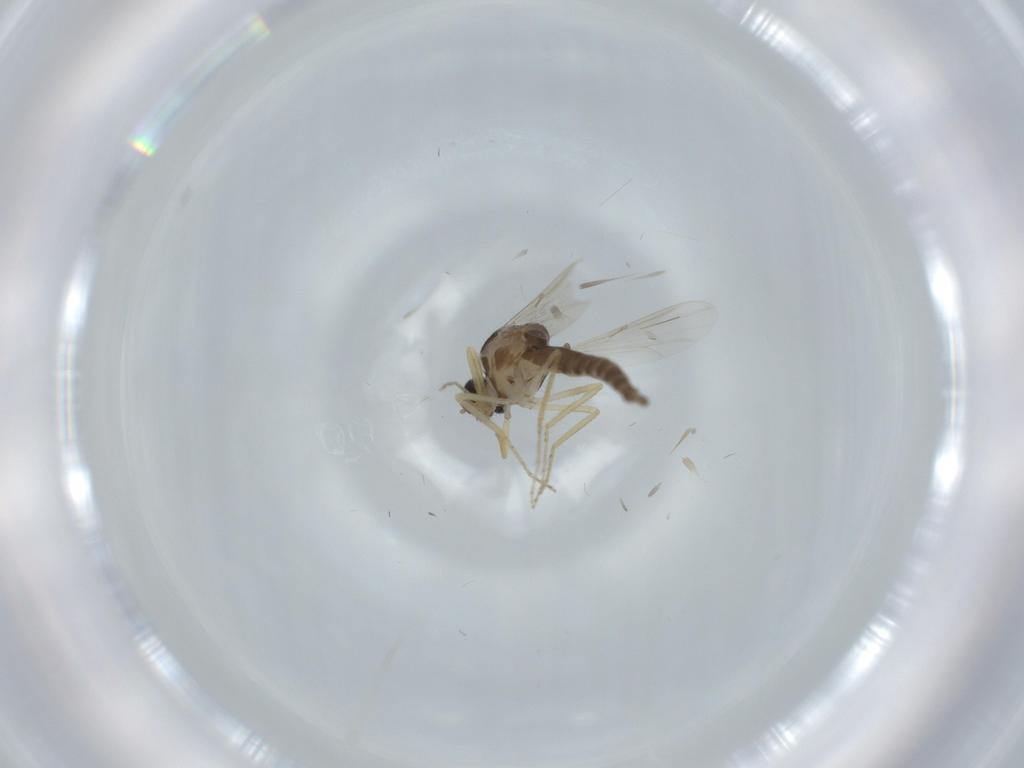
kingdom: Animalia
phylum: Arthropoda
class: Insecta
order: Diptera
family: Ceratopogonidae
